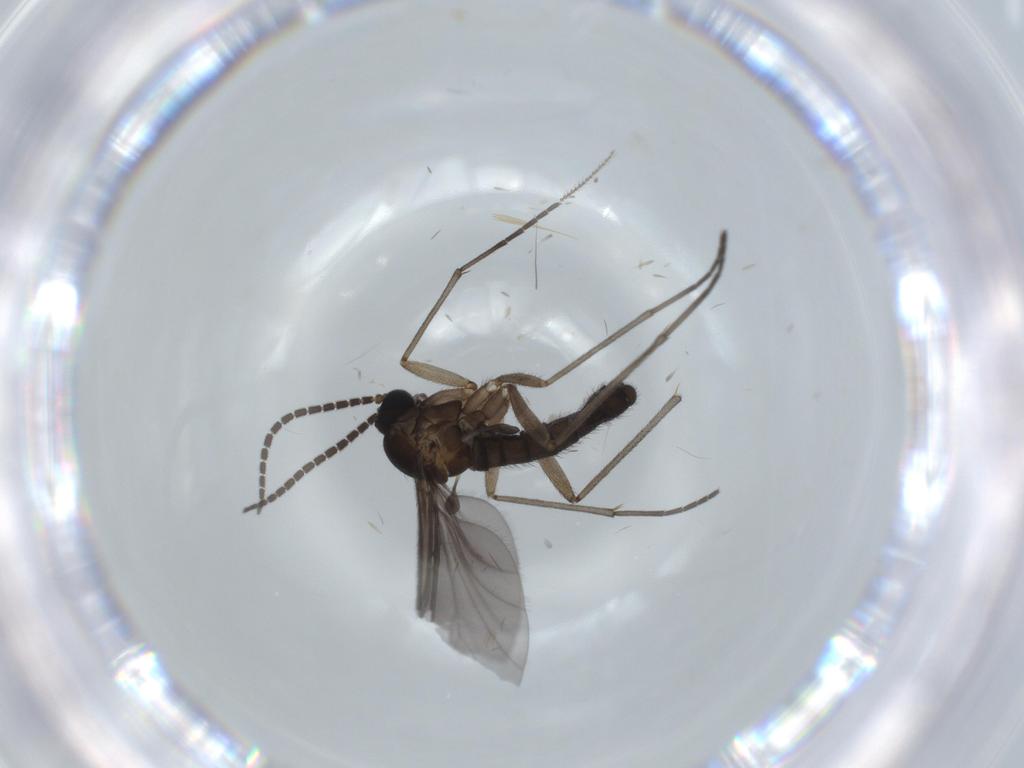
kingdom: Animalia
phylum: Arthropoda
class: Insecta
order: Diptera
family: Sciaridae
